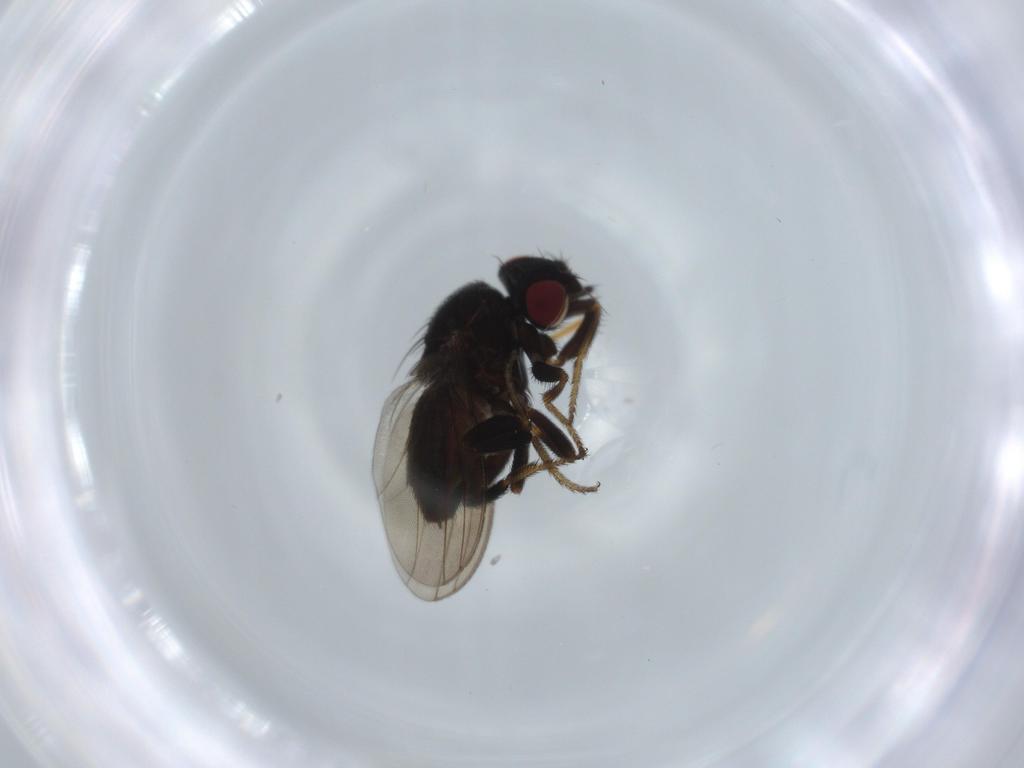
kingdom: Animalia
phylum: Arthropoda
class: Insecta
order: Diptera
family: Milichiidae
